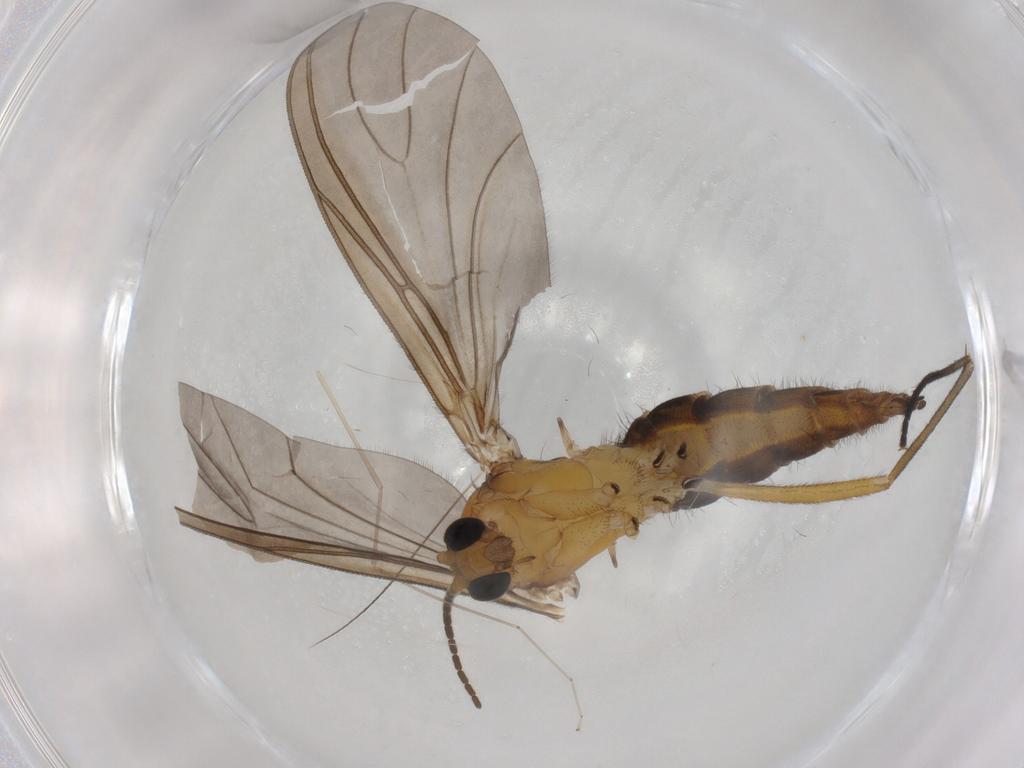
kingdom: Animalia
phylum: Arthropoda
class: Insecta
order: Diptera
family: Sciaridae
